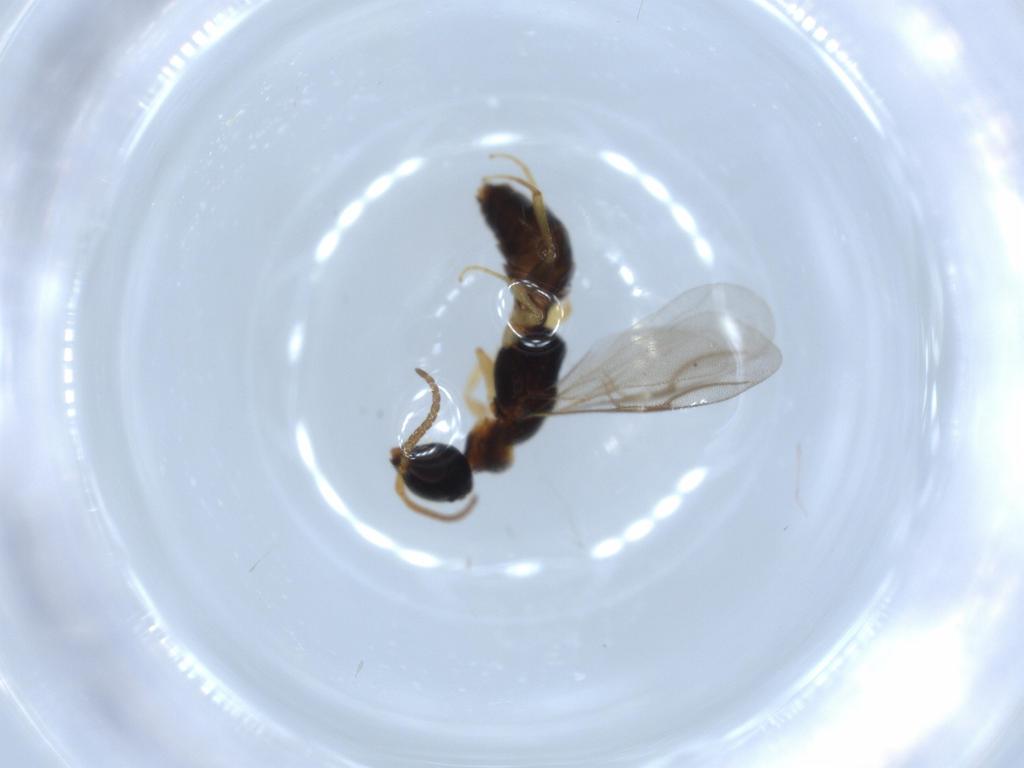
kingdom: Animalia
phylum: Arthropoda
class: Insecta
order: Hymenoptera
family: Bethylidae
